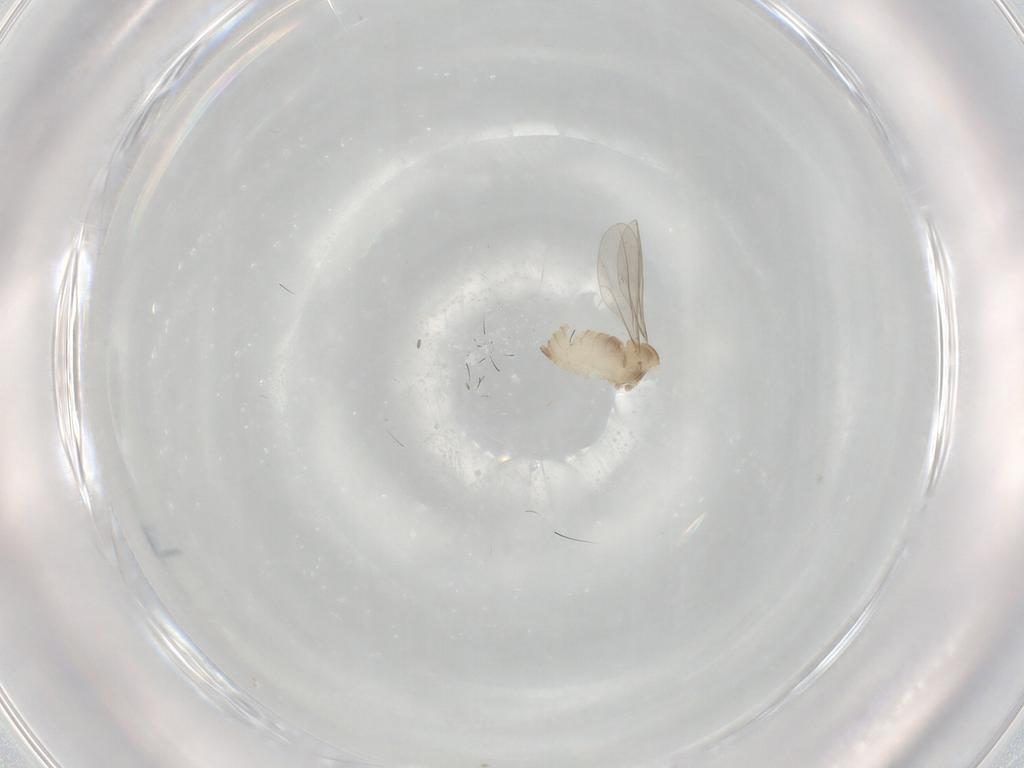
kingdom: Animalia
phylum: Arthropoda
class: Insecta
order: Diptera
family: Cecidomyiidae
